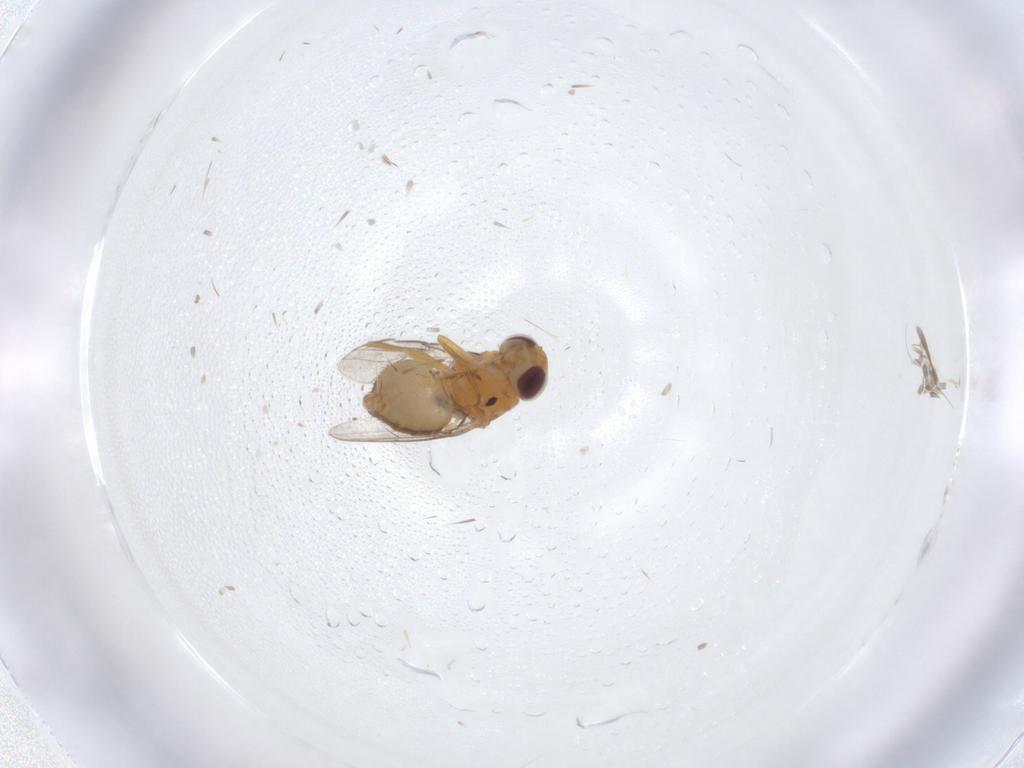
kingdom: Animalia
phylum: Arthropoda
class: Insecta
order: Diptera
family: Chloropidae
